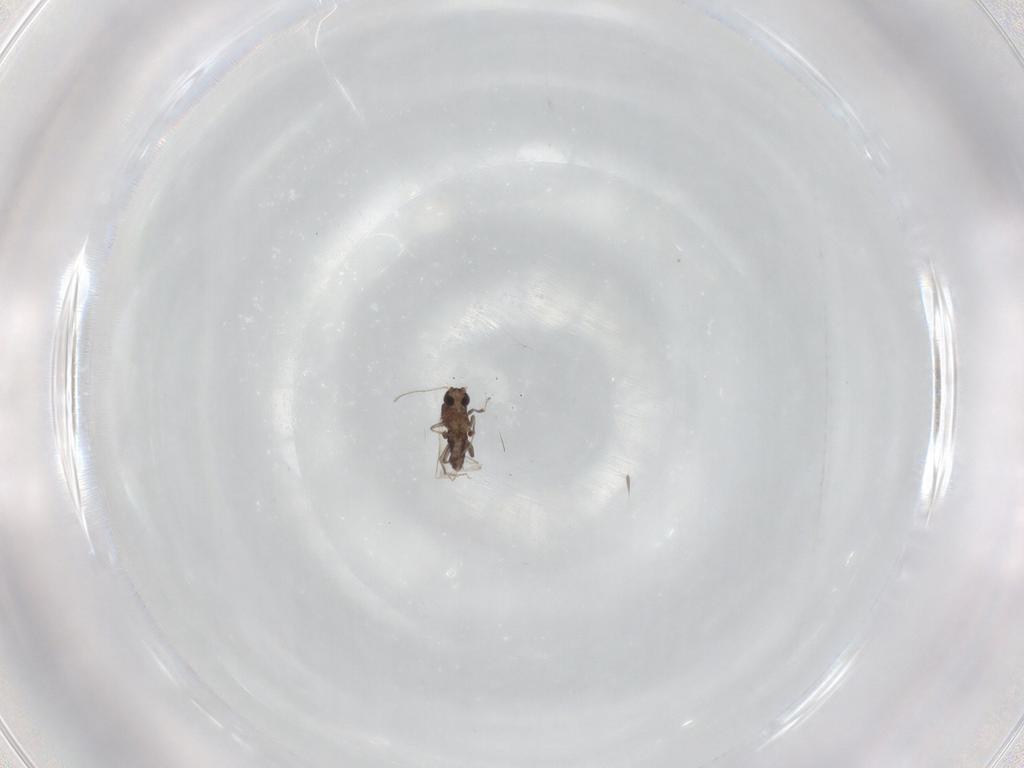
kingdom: Animalia
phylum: Arthropoda
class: Insecta
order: Diptera
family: Ceratopogonidae
